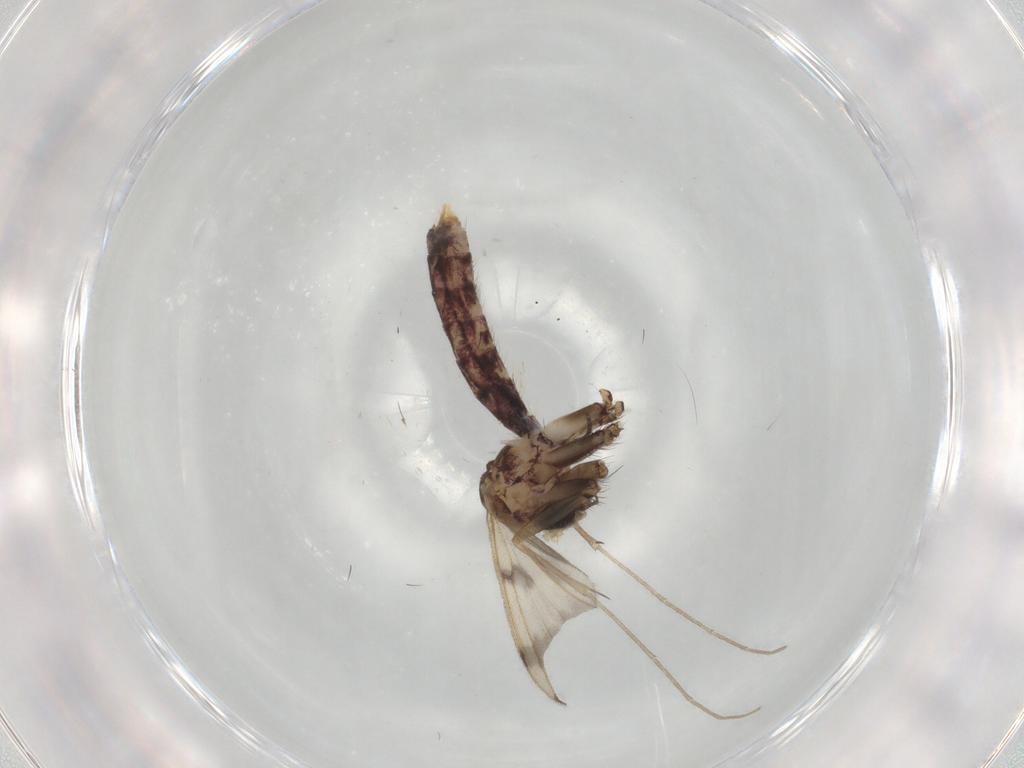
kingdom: Animalia
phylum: Arthropoda
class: Insecta
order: Diptera
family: Mycetophilidae
